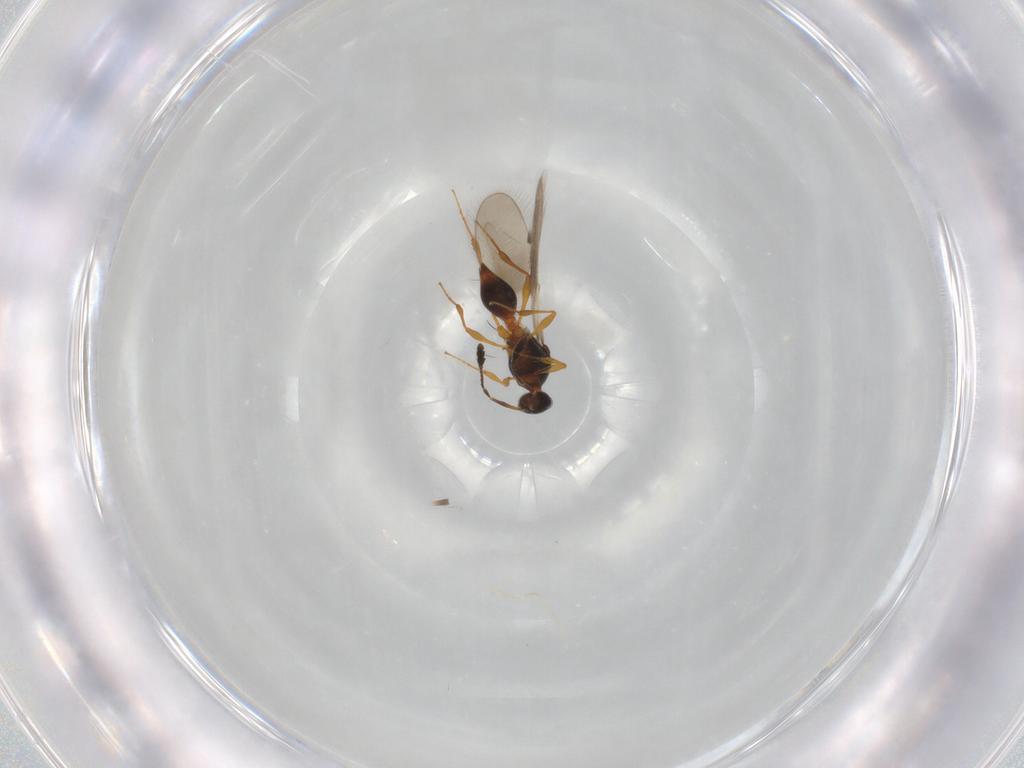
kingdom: Animalia
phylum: Arthropoda
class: Insecta
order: Hymenoptera
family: Platygastridae
